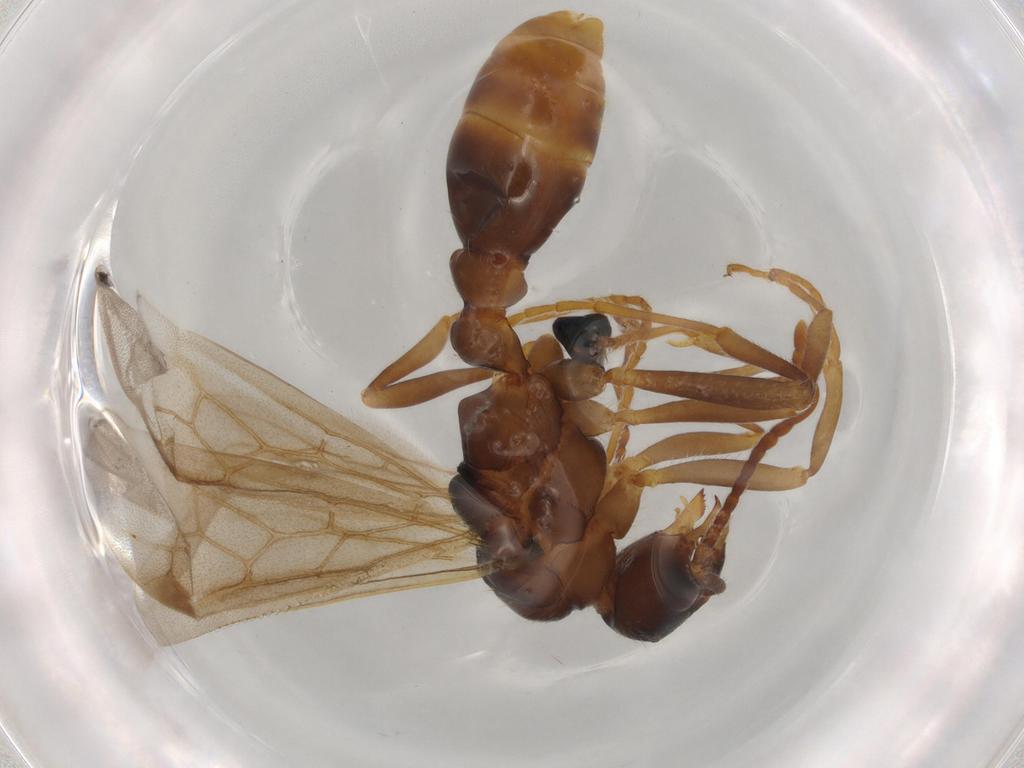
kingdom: Animalia
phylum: Arthropoda
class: Insecta
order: Hymenoptera
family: Formicidae
